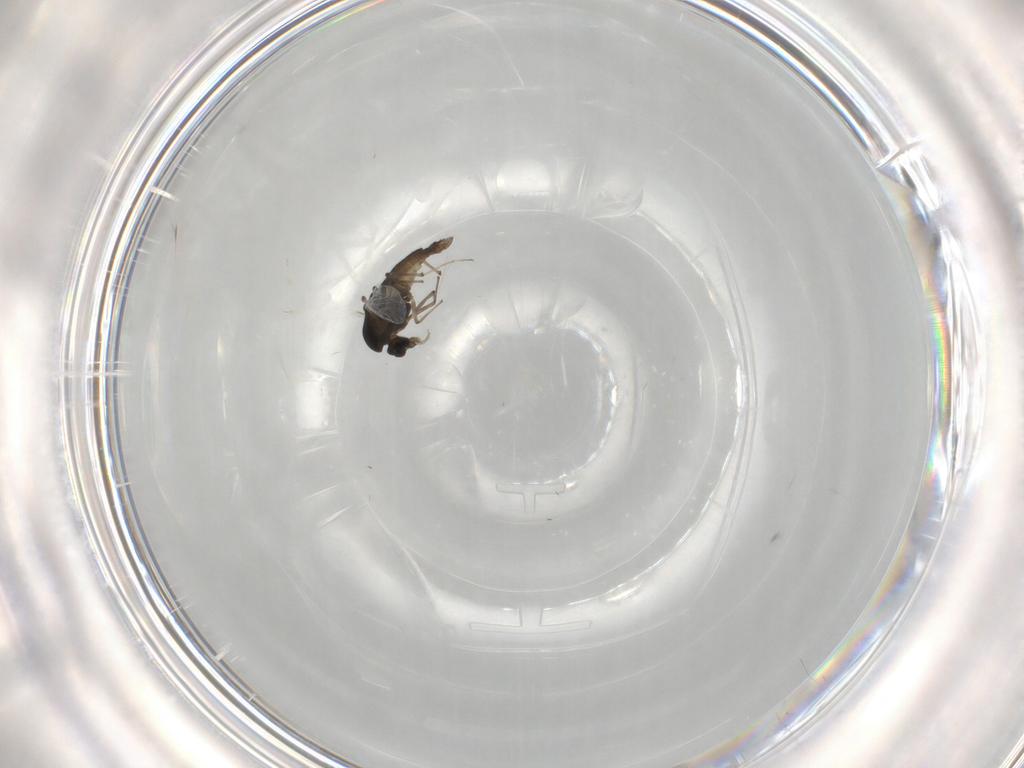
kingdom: Animalia
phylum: Arthropoda
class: Insecta
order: Diptera
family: Chironomidae
